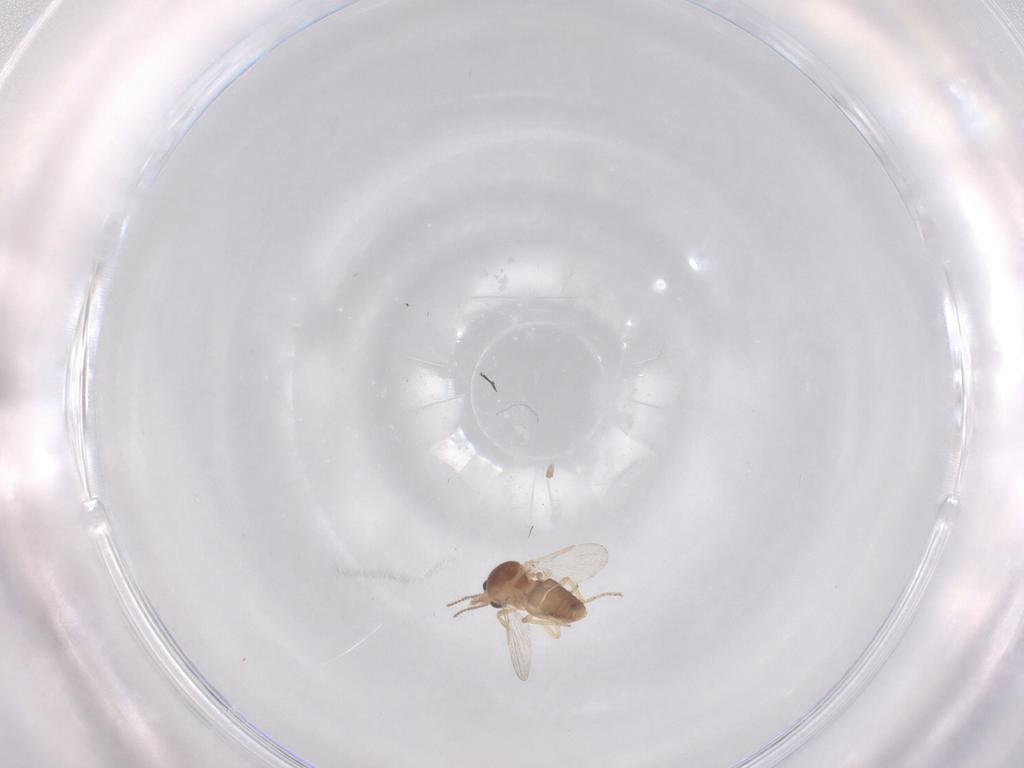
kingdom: Animalia
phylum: Arthropoda
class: Insecta
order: Diptera
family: Ceratopogonidae
